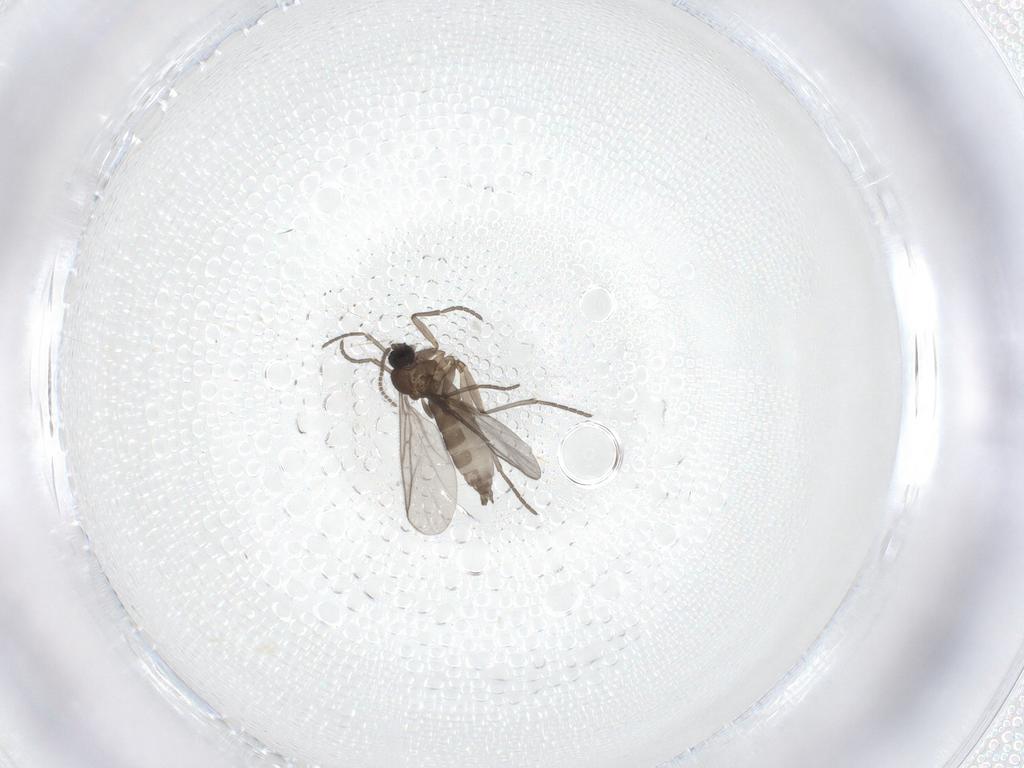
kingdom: Animalia
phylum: Arthropoda
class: Insecta
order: Diptera
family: Sciaridae
